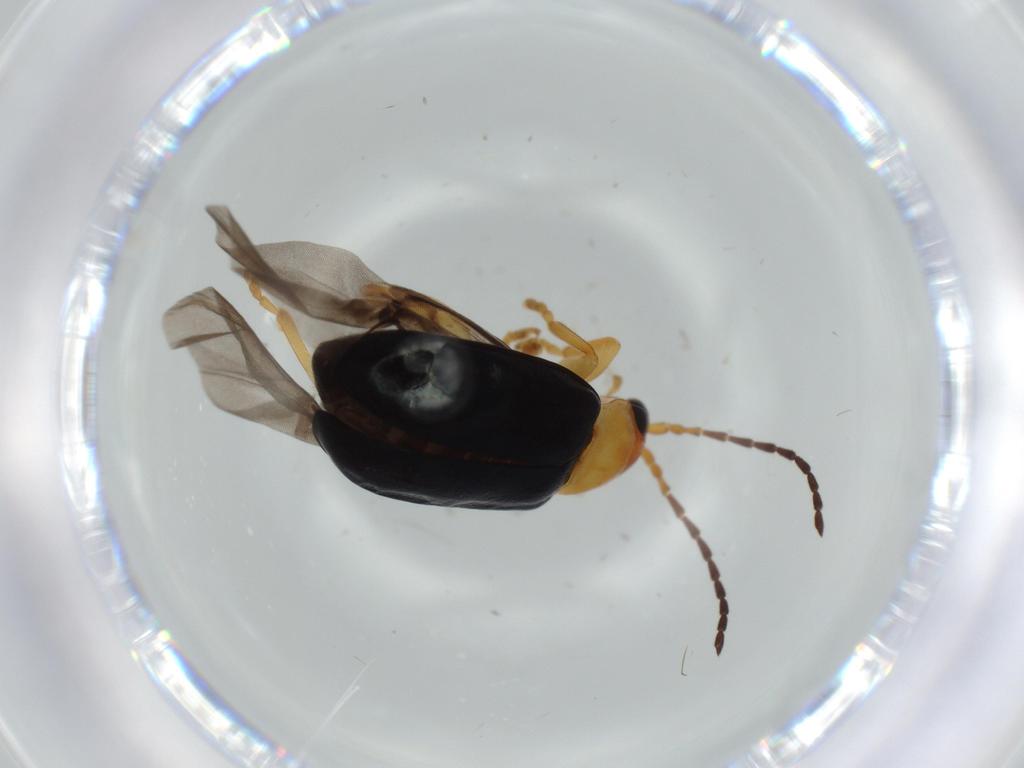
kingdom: Animalia
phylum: Arthropoda
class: Insecta
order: Coleoptera
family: Chrysomelidae
